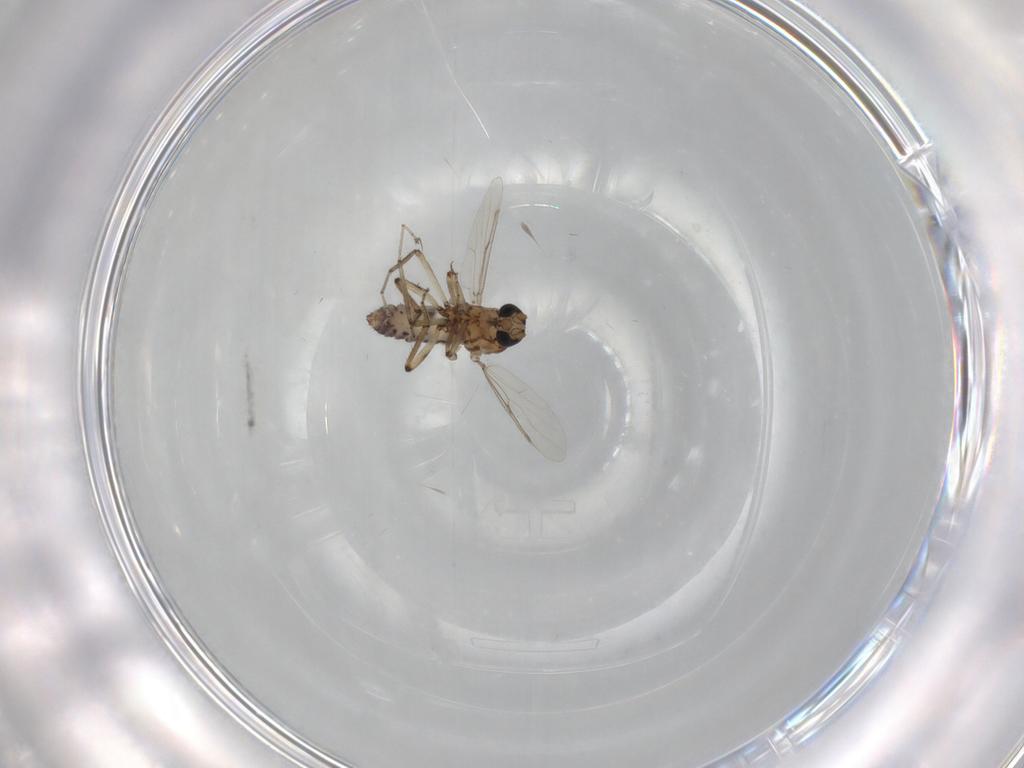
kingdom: Animalia
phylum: Arthropoda
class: Insecta
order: Diptera
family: Ceratopogonidae
